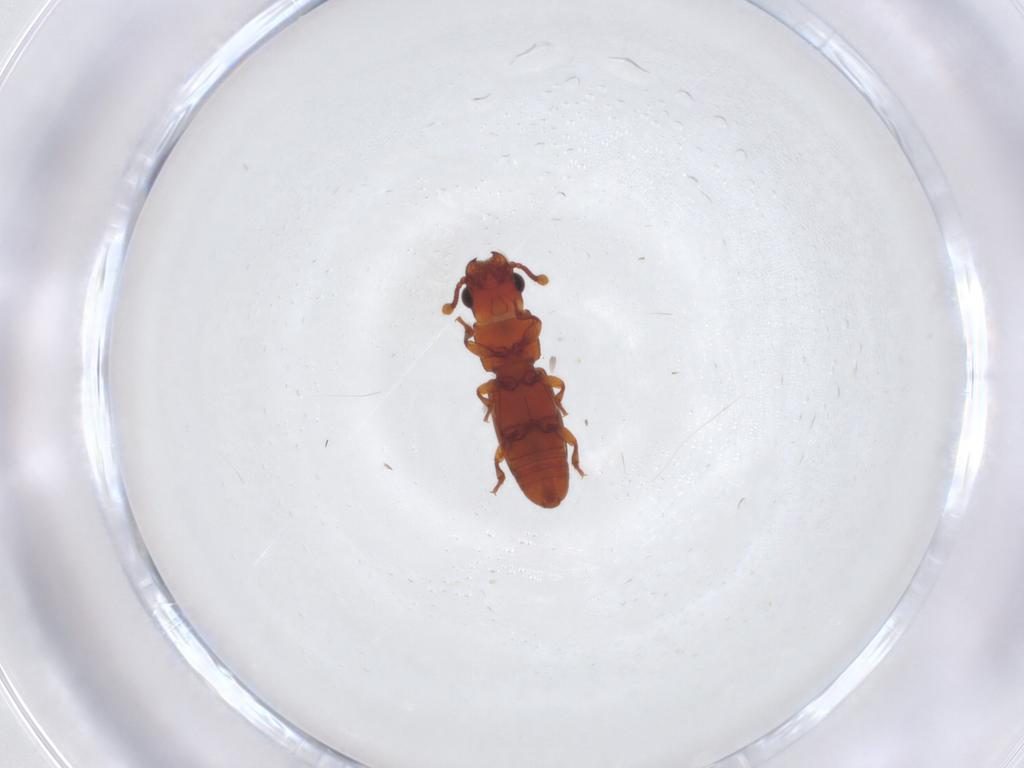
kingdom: Animalia
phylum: Arthropoda
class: Insecta
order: Coleoptera
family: Monotomidae
